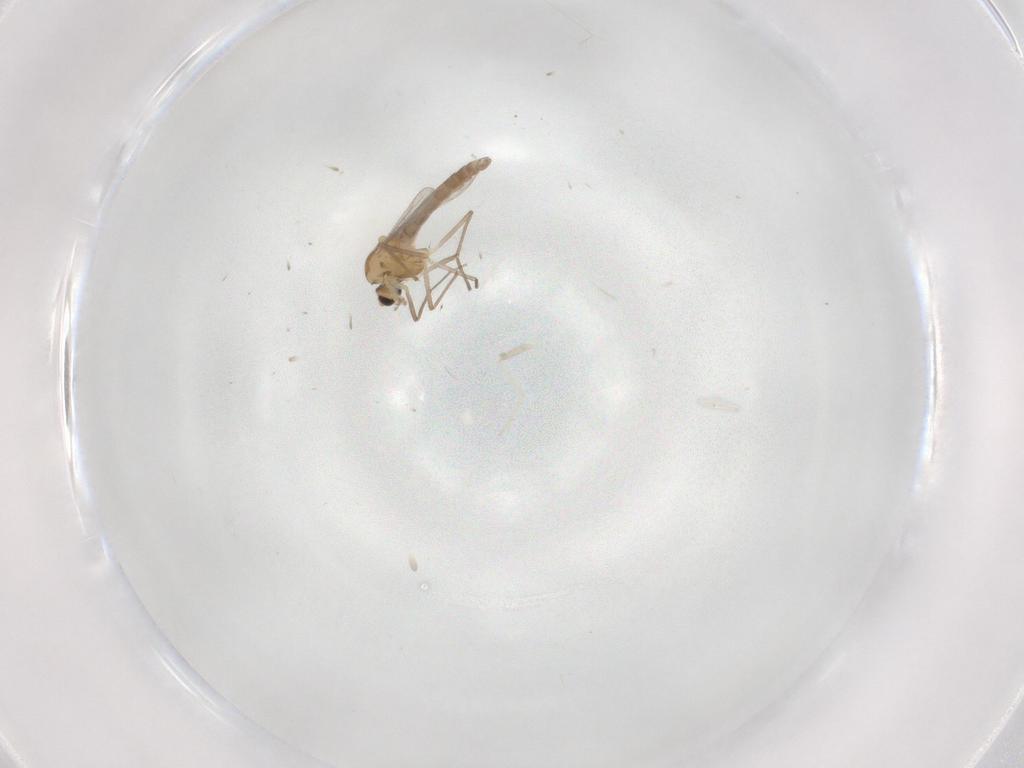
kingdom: Animalia
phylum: Arthropoda
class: Insecta
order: Diptera
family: Chironomidae
